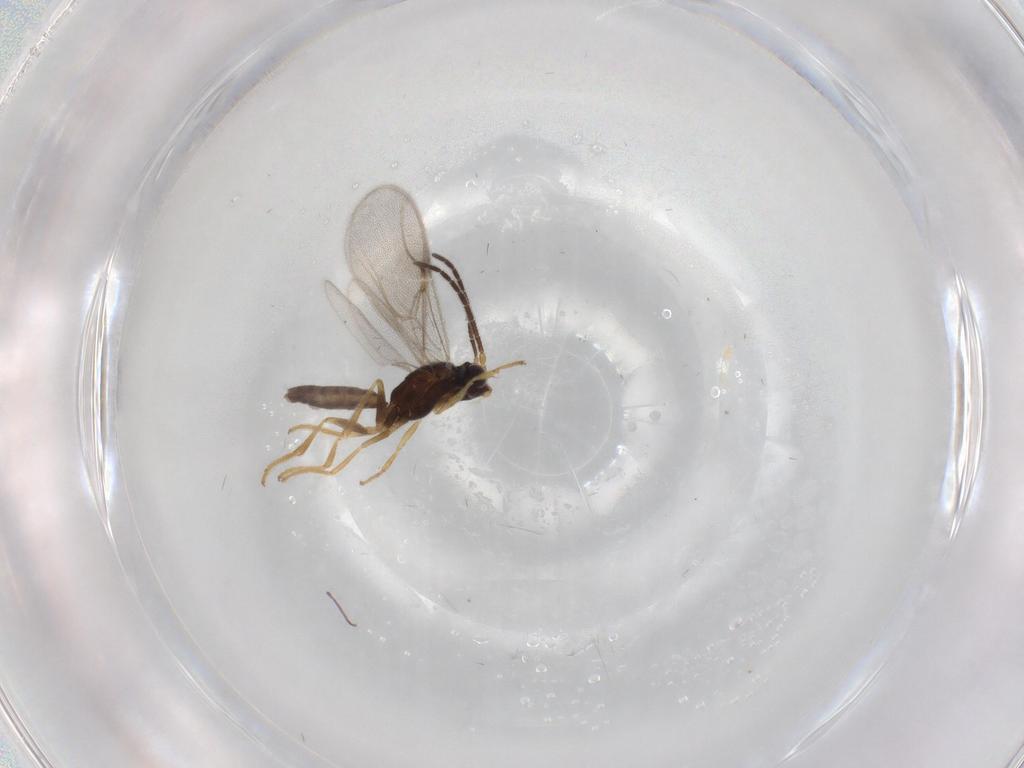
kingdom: Animalia
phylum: Arthropoda
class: Insecta
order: Hymenoptera
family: Dryinidae
